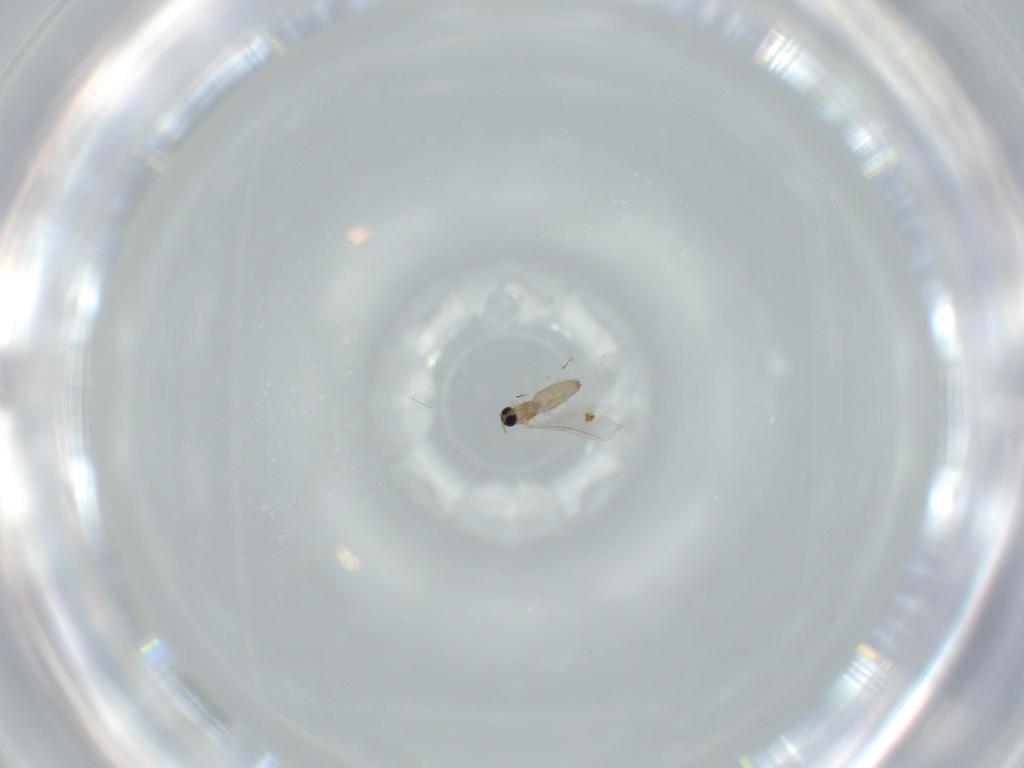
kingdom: Animalia
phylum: Arthropoda
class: Insecta
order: Diptera
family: Cecidomyiidae
